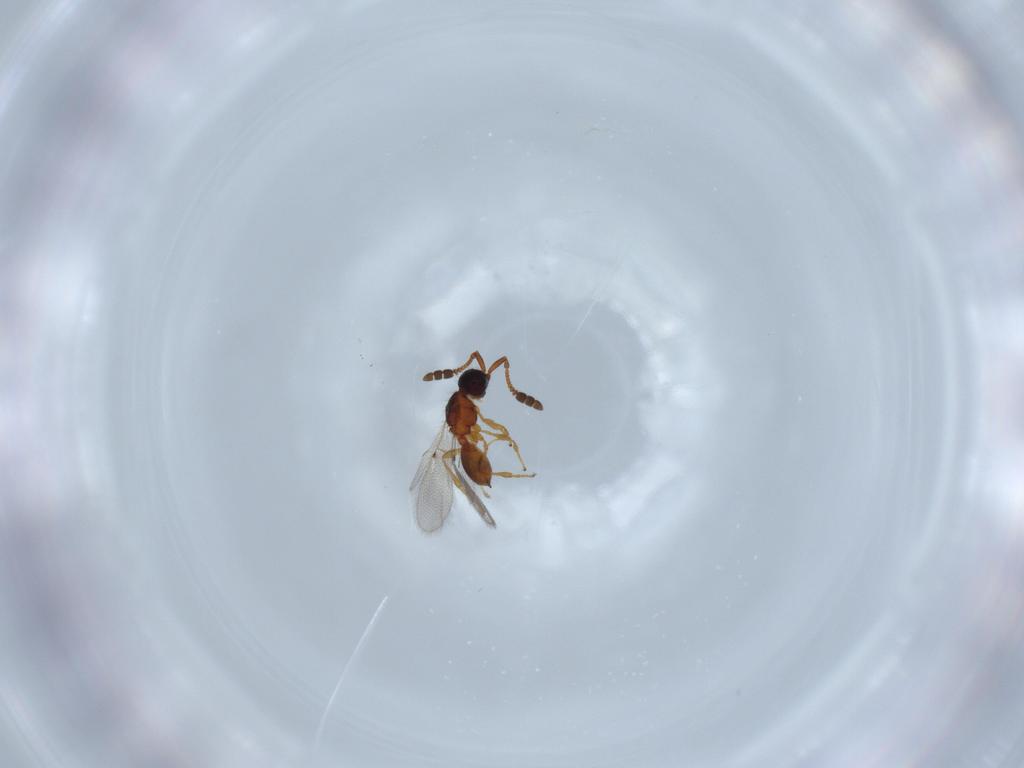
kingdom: Animalia
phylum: Arthropoda
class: Insecta
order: Hymenoptera
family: Diapriidae
